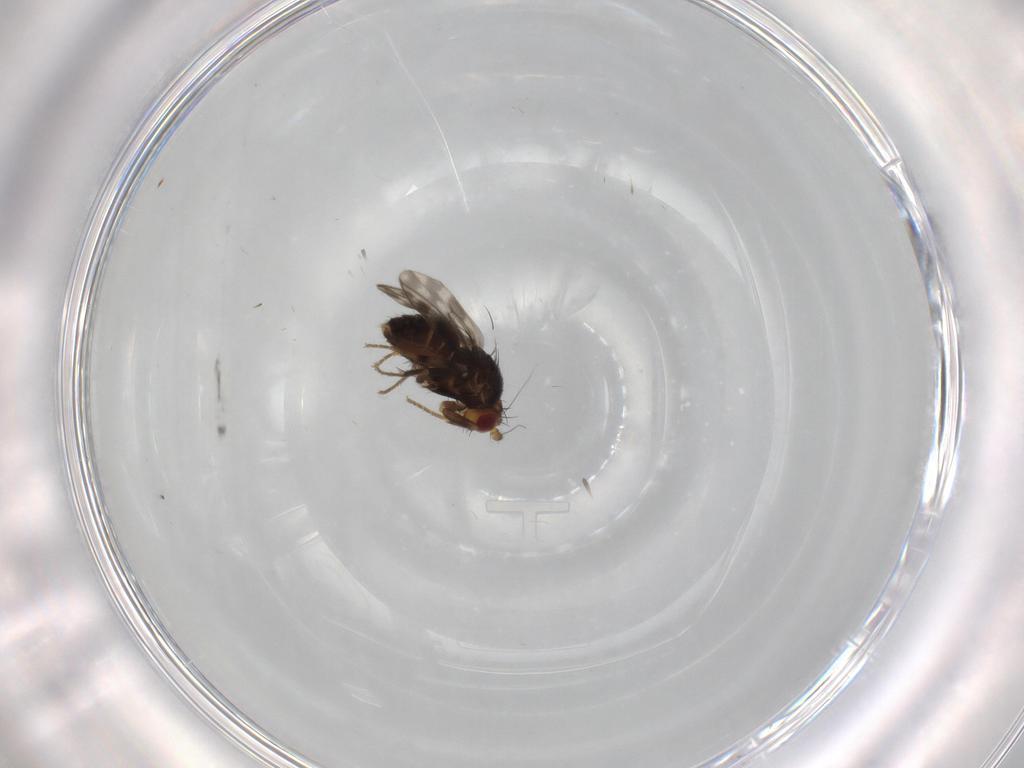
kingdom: Animalia
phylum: Arthropoda
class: Insecta
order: Diptera
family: Sphaeroceridae
